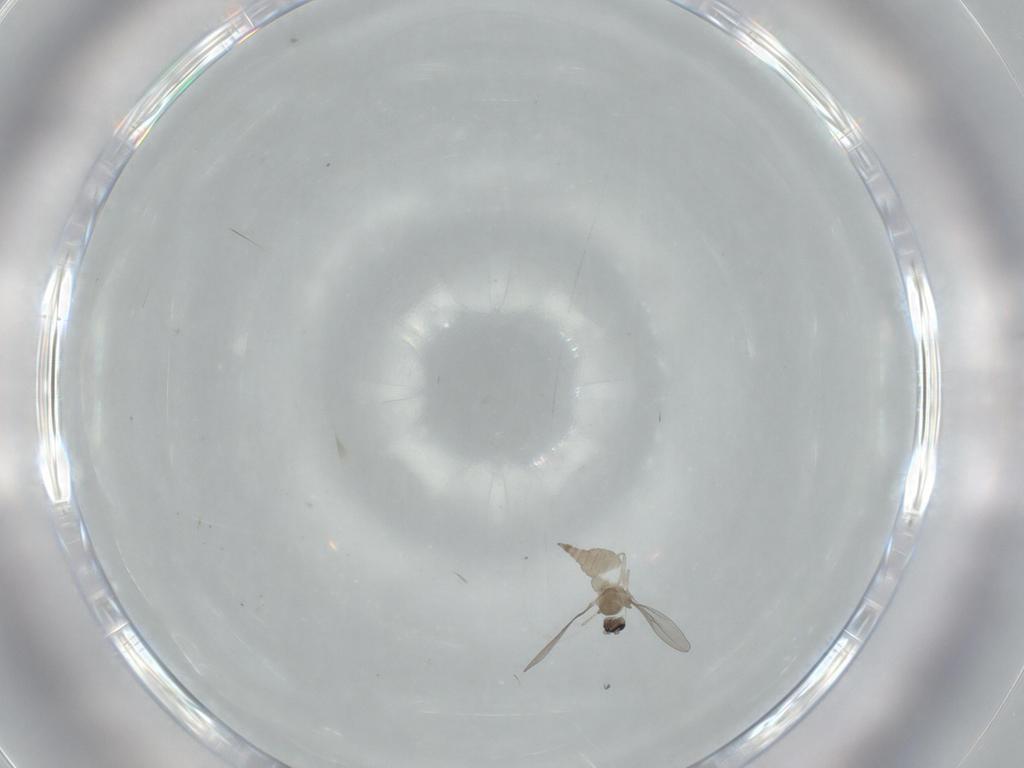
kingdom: Animalia
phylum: Arthropoda
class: Insecta
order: Diptera
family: Cecidomyiidae
